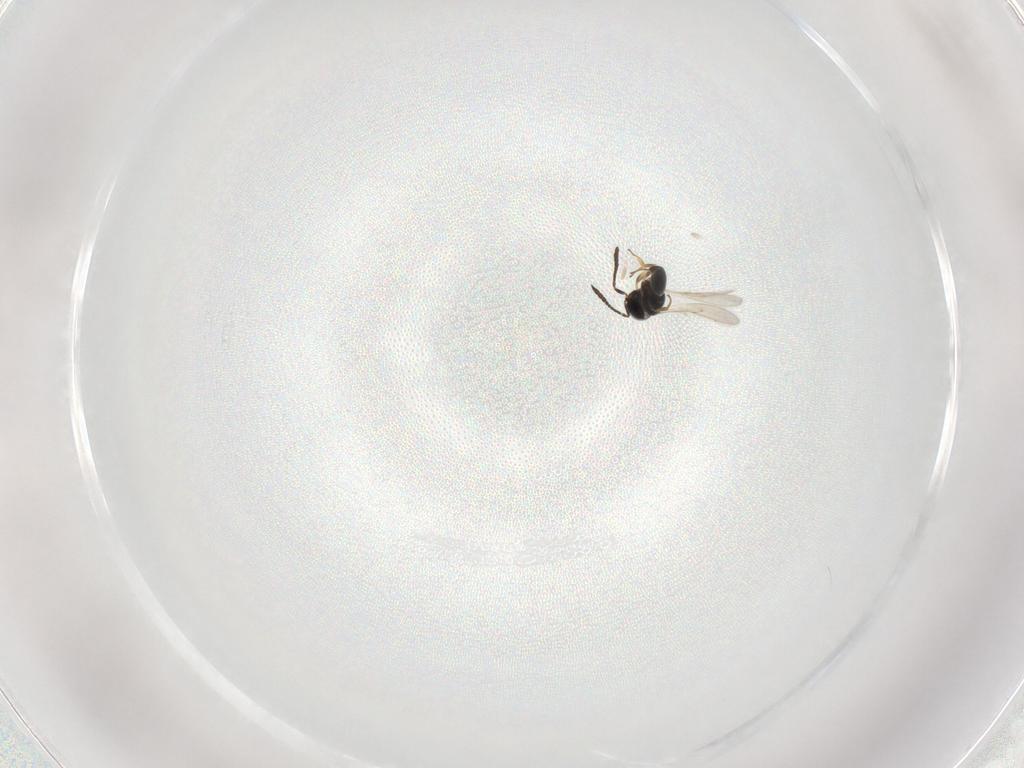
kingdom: Animalia
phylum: Arthropoda
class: Insecta
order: Hymenoptera
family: Scelionidae
